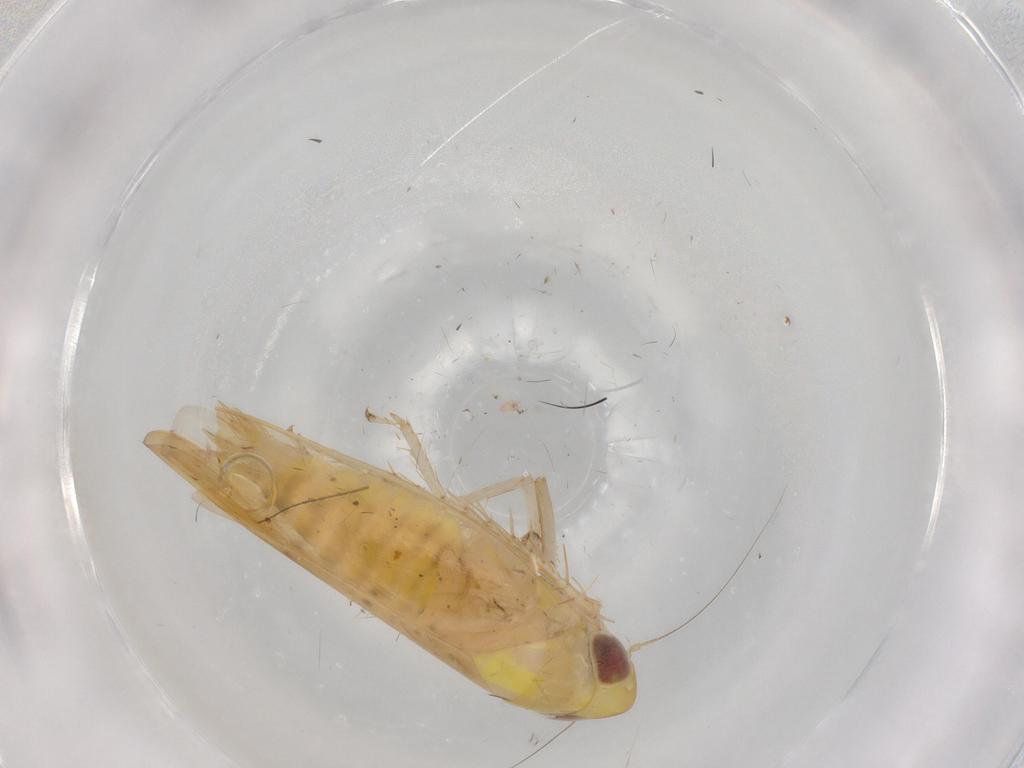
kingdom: Animalia
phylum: Arthropoda
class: Insecta
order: Hemiptera
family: Cicadellidae
